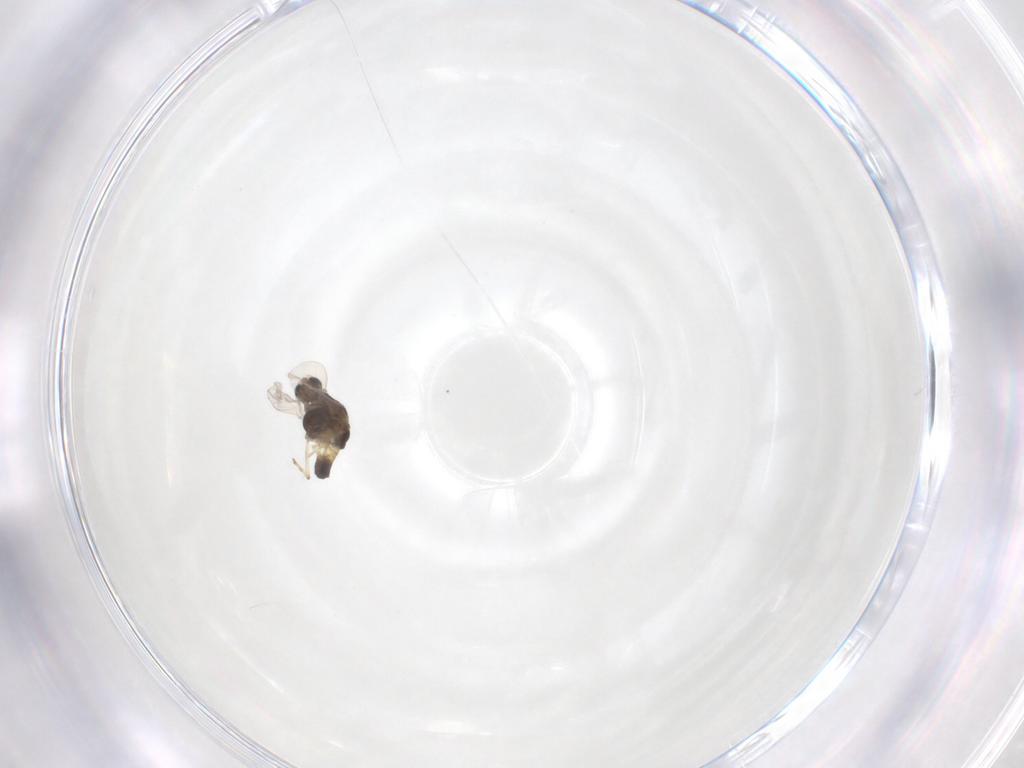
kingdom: Animalia
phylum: Arthropoda
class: Insecta
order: Diptera
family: Chironomidae
